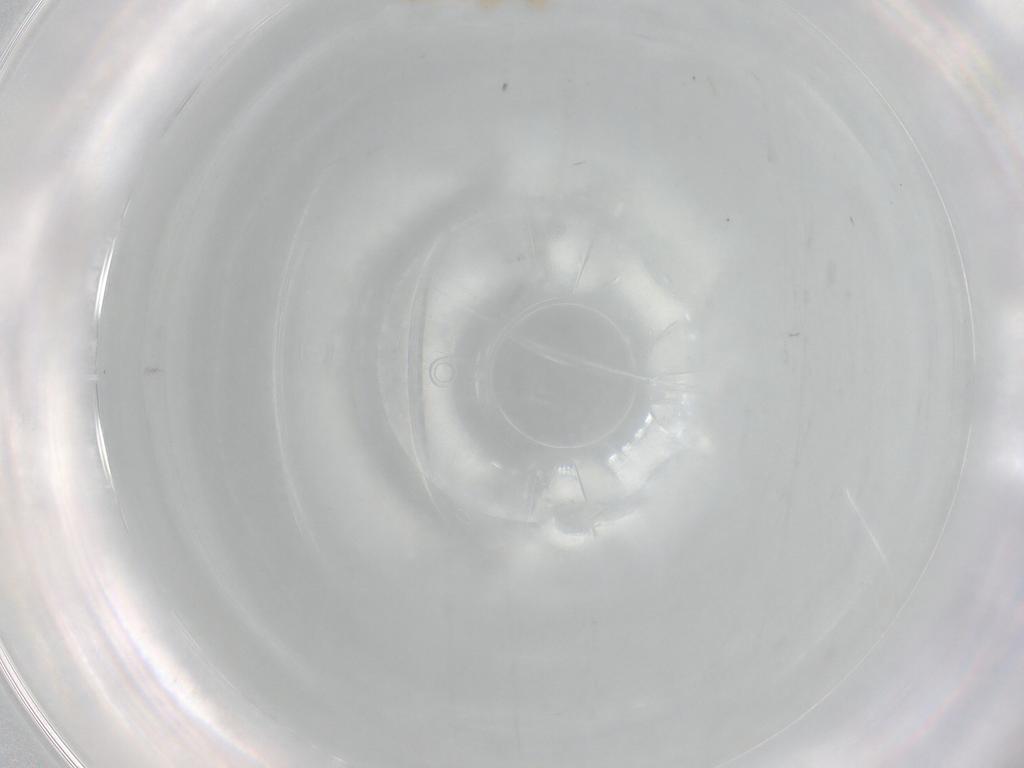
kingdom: Animalia
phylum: Arthropoda
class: Insecta
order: Psocodea
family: Lepidopsocidae
